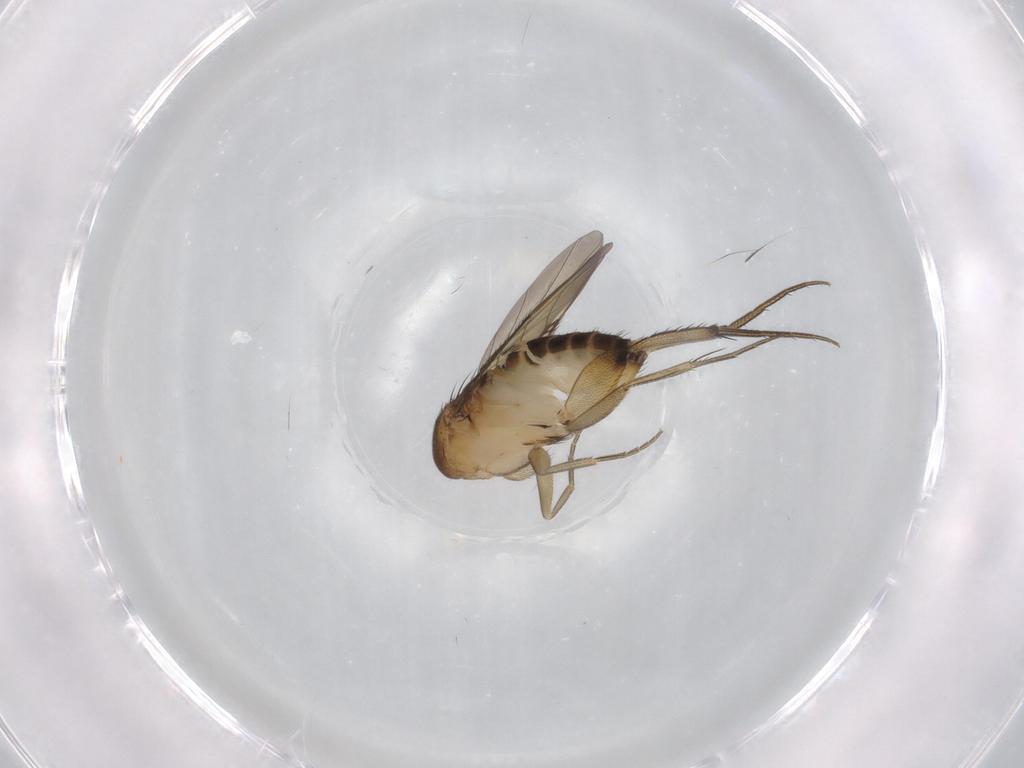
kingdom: Animalia
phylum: Arthropoda
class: Insecta
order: Diptera
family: Phoridae
